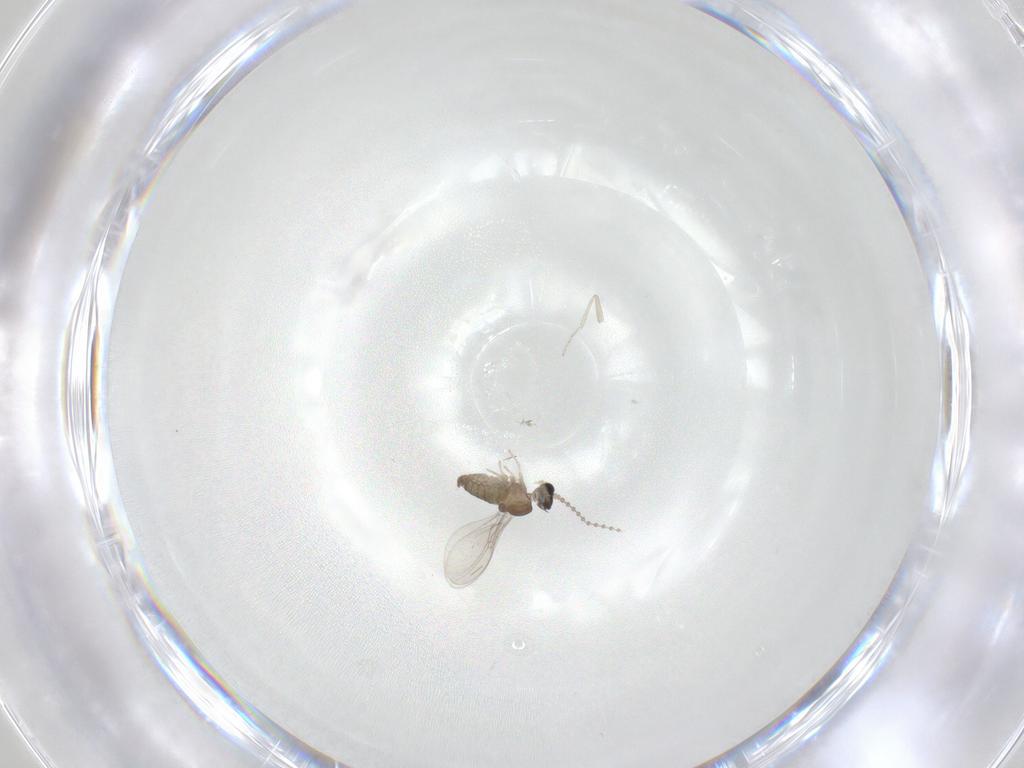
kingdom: Animalia
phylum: Arthropoda
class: Insecta
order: Diptera
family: Cecidomyiidae
